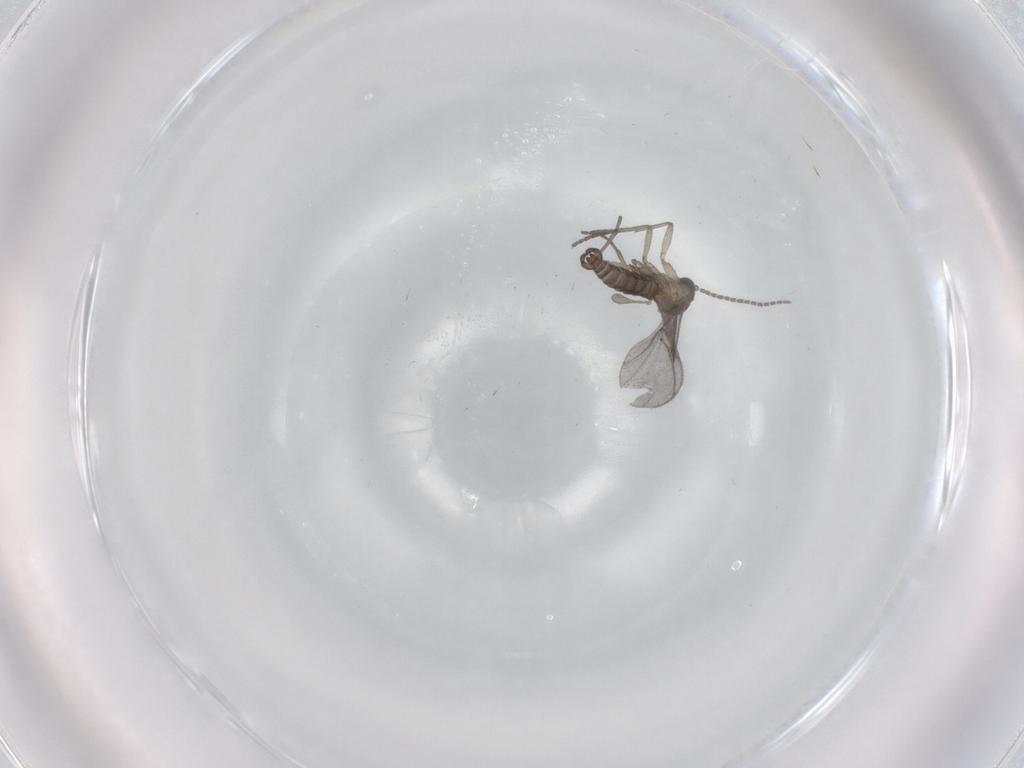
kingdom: Animalia
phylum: Arthropoda
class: Insecta
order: Diptera
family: Sciaridae
